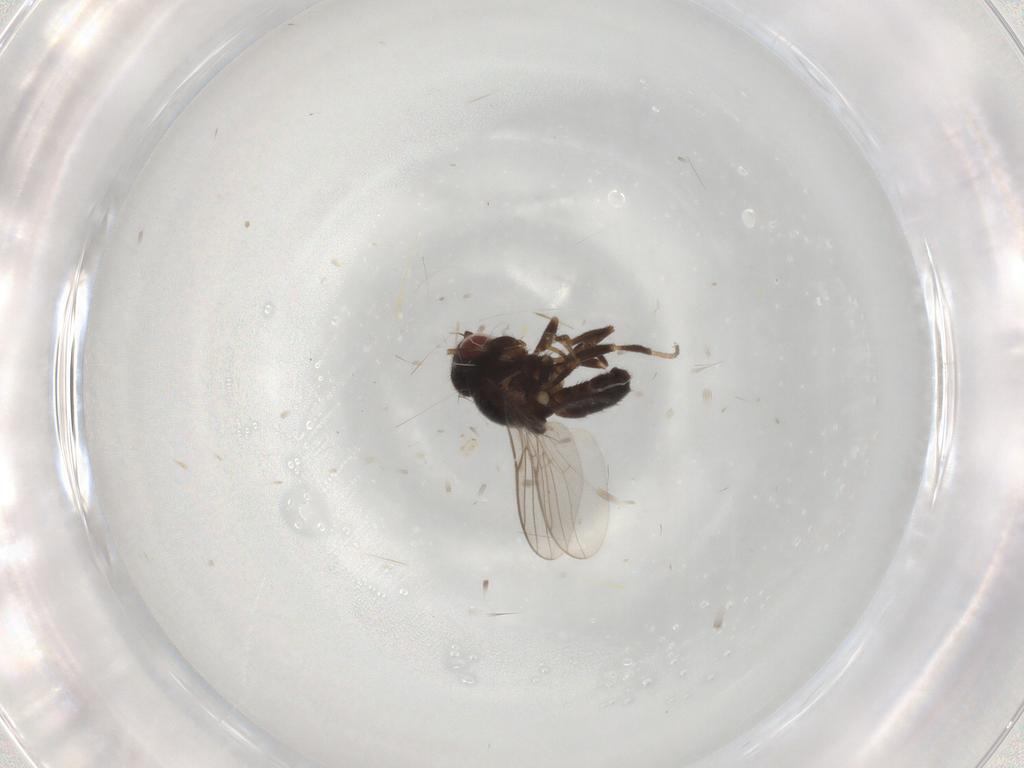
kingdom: Animalia
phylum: Arthropoda
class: Insecta
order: Diptera
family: Chloropidae
